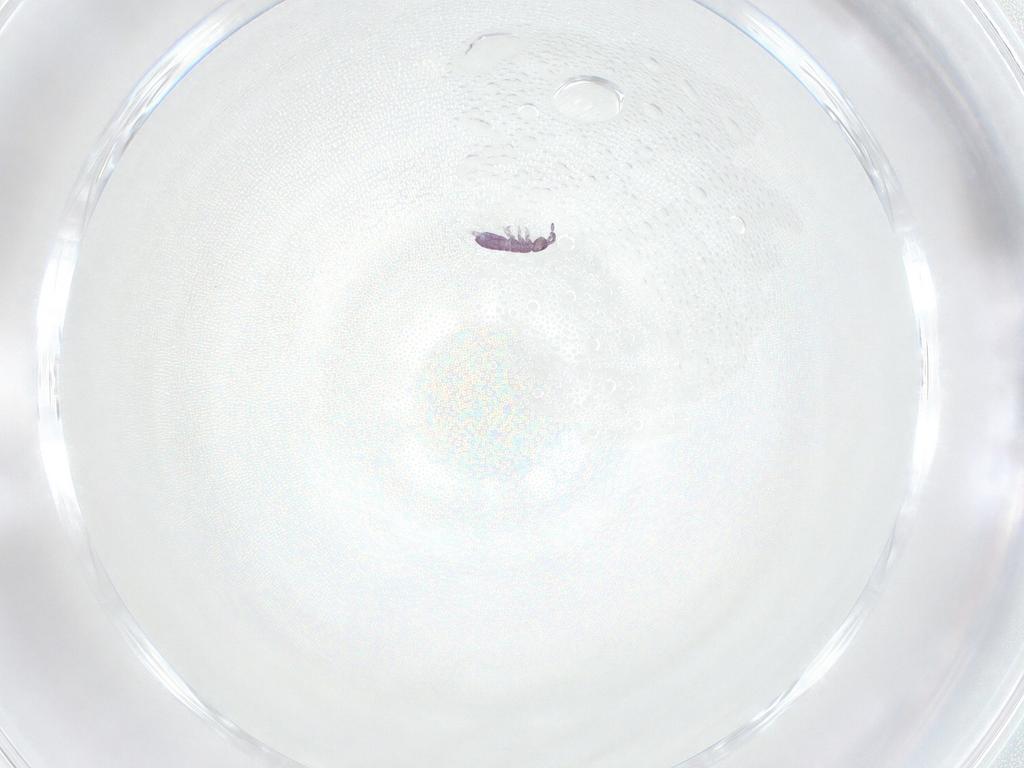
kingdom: Animalia
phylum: Arthropoda
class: Collembola
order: Entomobryomorpha
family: Isotomidae
